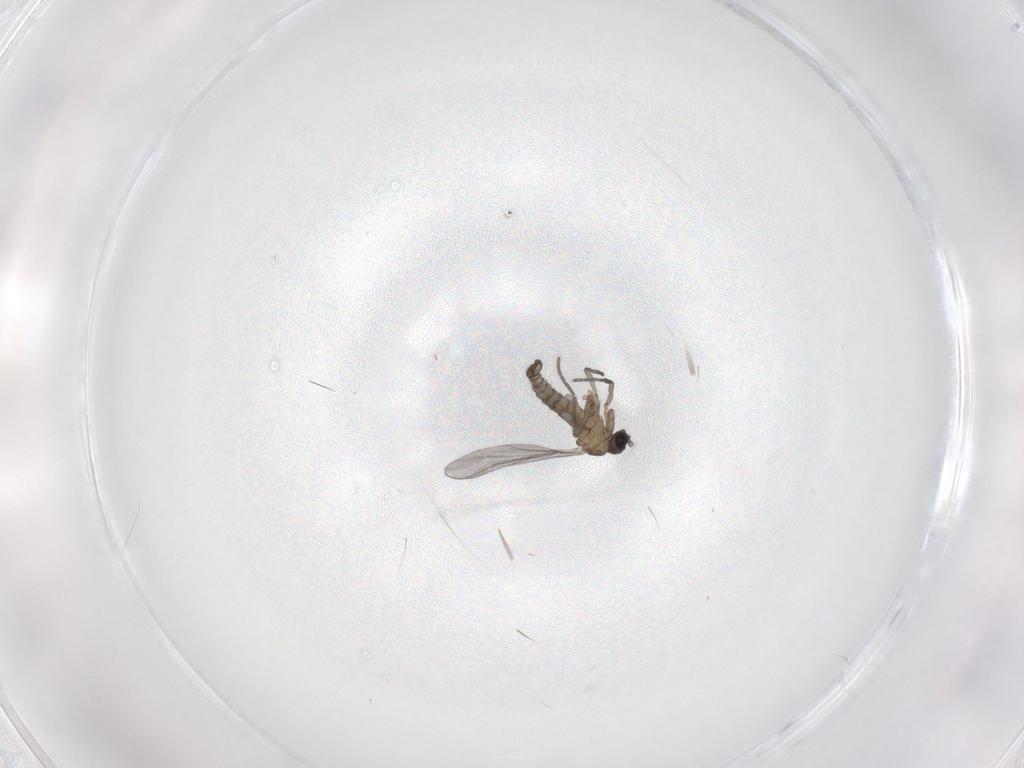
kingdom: Animalia
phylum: Arthropoda
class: Insecta
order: Diptera
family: Sciaridae
